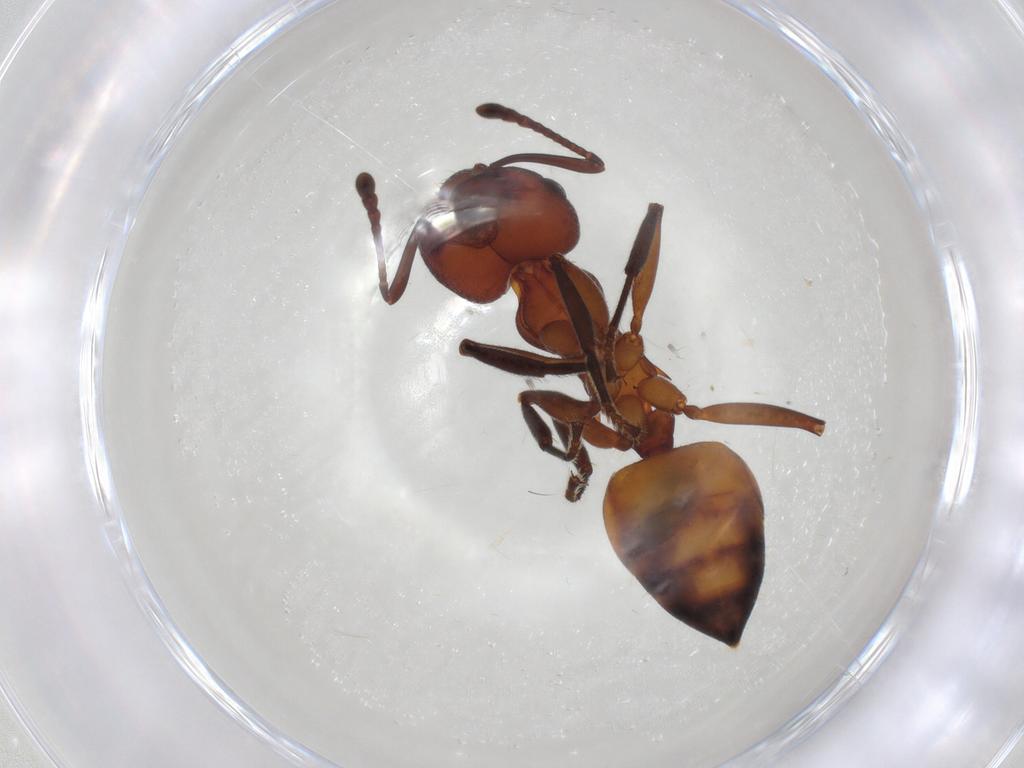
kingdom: Animalia
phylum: Arthropoda
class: Insecta
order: Hymenoptera
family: Formicidae
